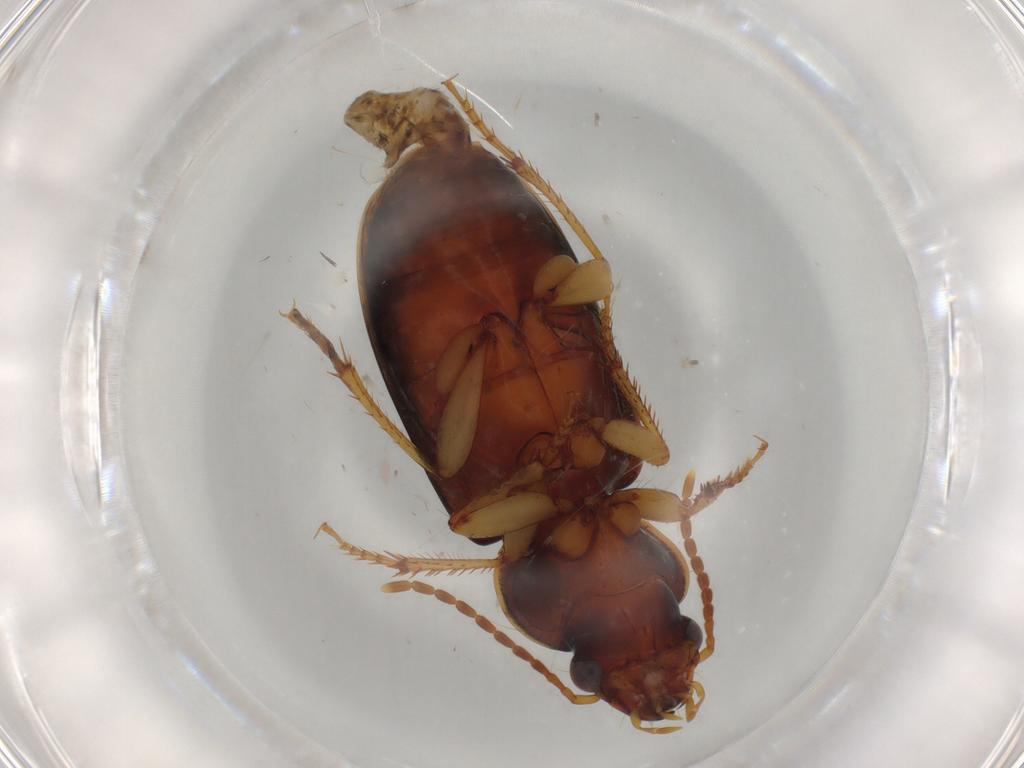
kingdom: Animalia
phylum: Arthropoda
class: Insecta
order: Coleoptera
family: Carabidae
